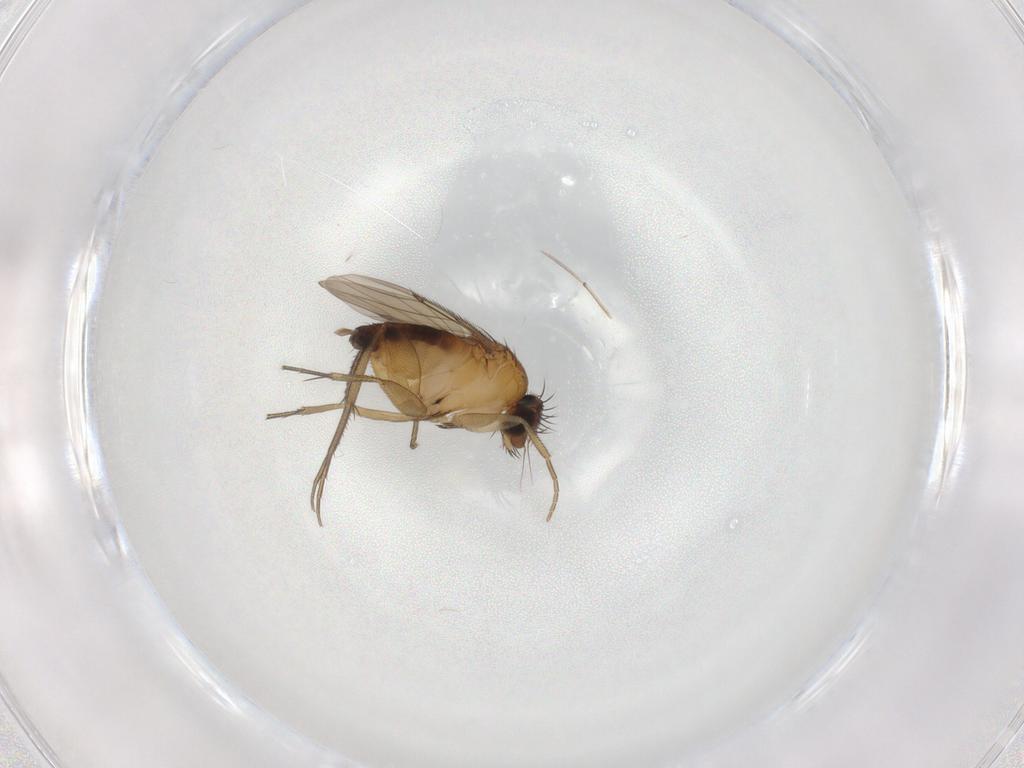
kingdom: Animalia
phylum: Arthropoda
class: Insecta
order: Diptera
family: Phoridae
